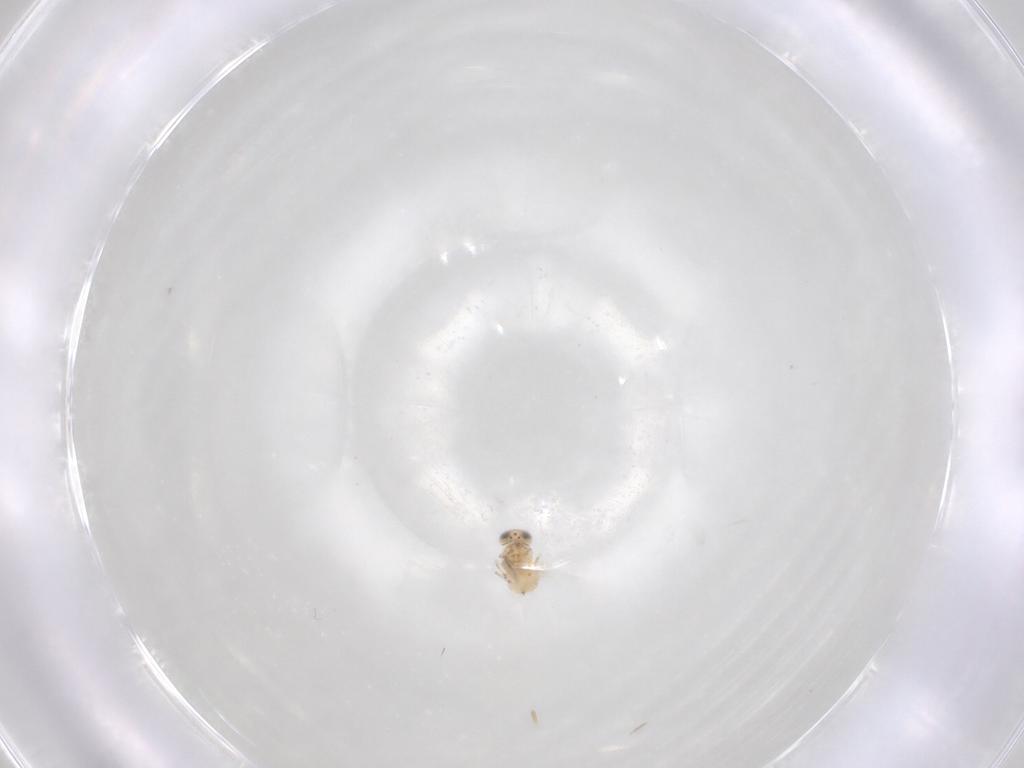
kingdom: Animalia
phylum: Arthropoda
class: Insecta
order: Hymenoptera
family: Aphelinidae
